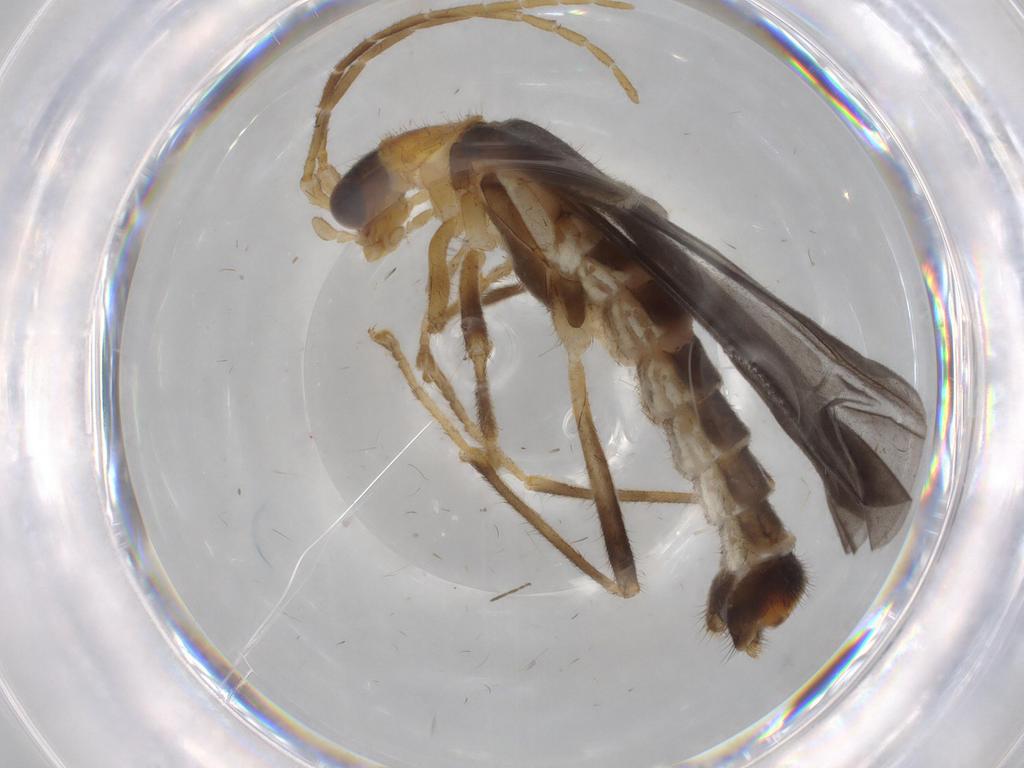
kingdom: Animalia
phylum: Arthropoda
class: Insecta
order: Coleoptera
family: Cantharidae
